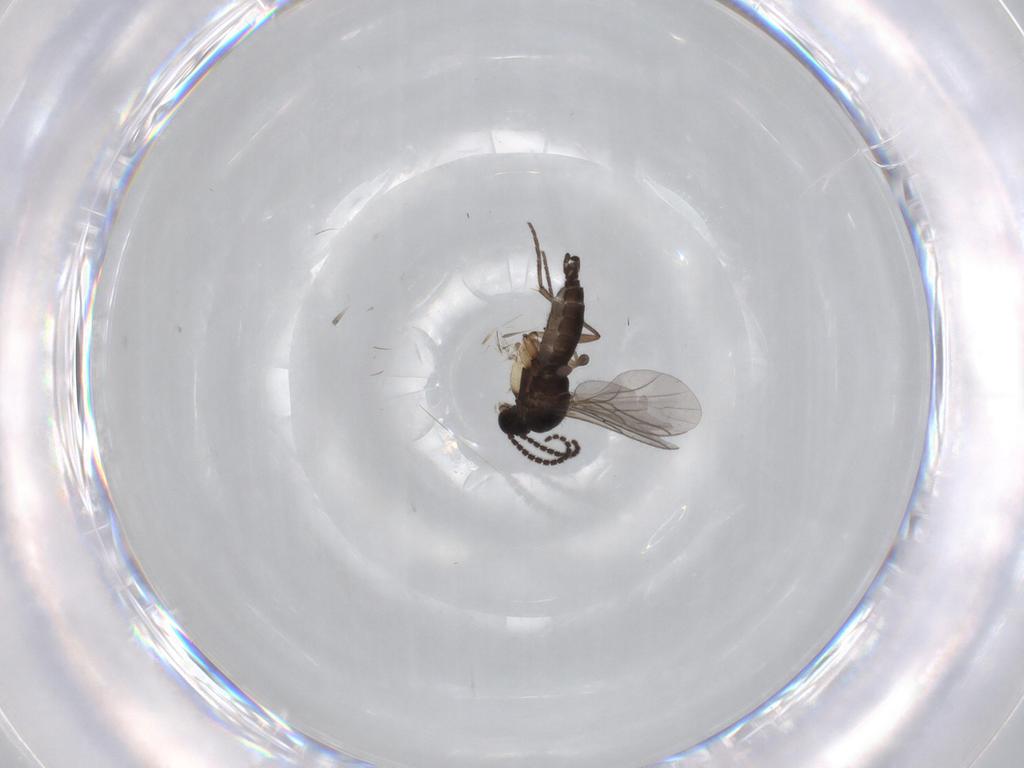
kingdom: Animalia
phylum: Arthropoda
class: Insecta
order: Diptera
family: Sciaridae
